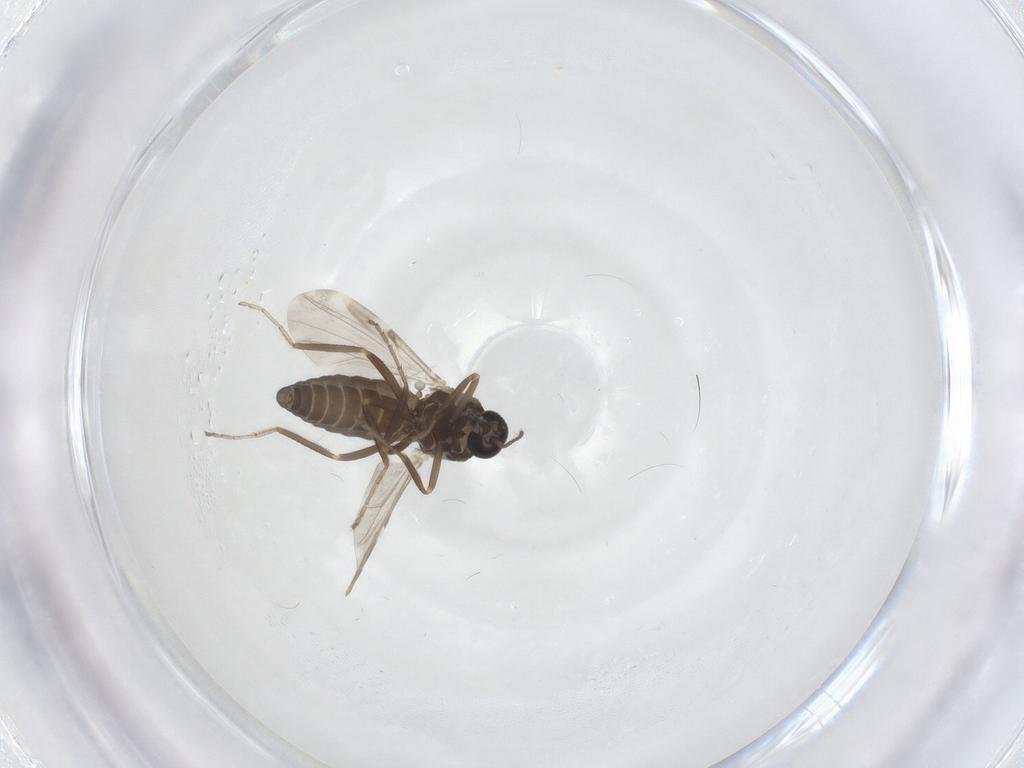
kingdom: Animalia
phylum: Arthropoda
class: Insecta
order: Diptera
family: Ceratopogonidae
